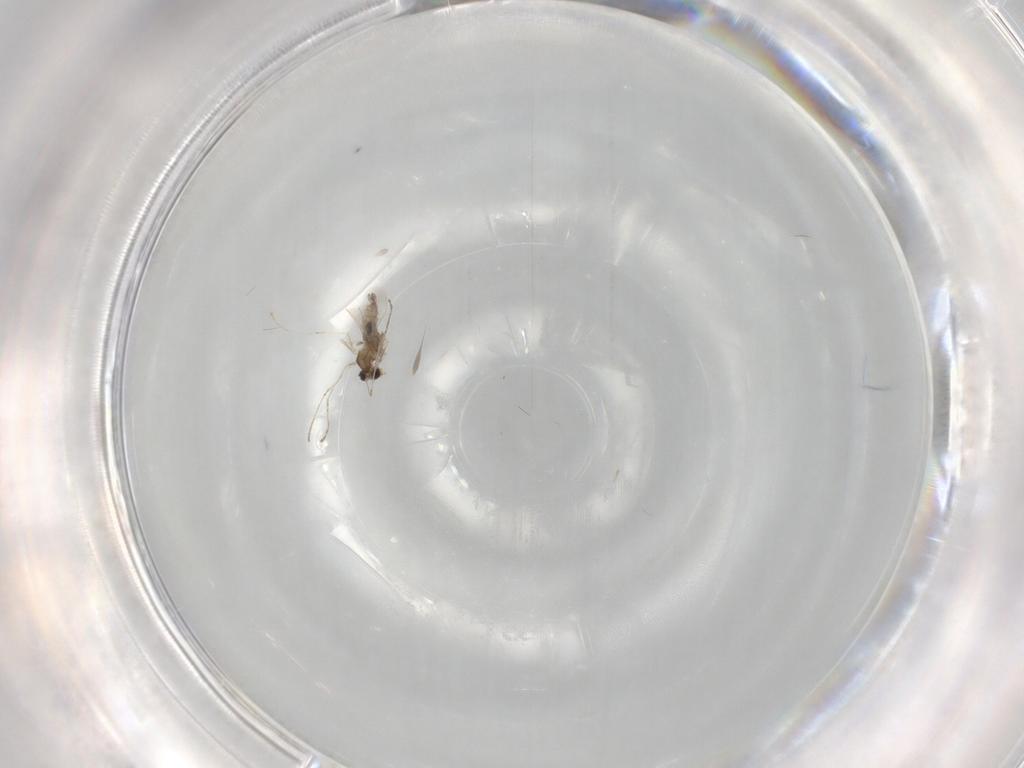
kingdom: Animalia
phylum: Arthropoda
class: Insecta
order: Diptera
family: Cecidomyiidae
